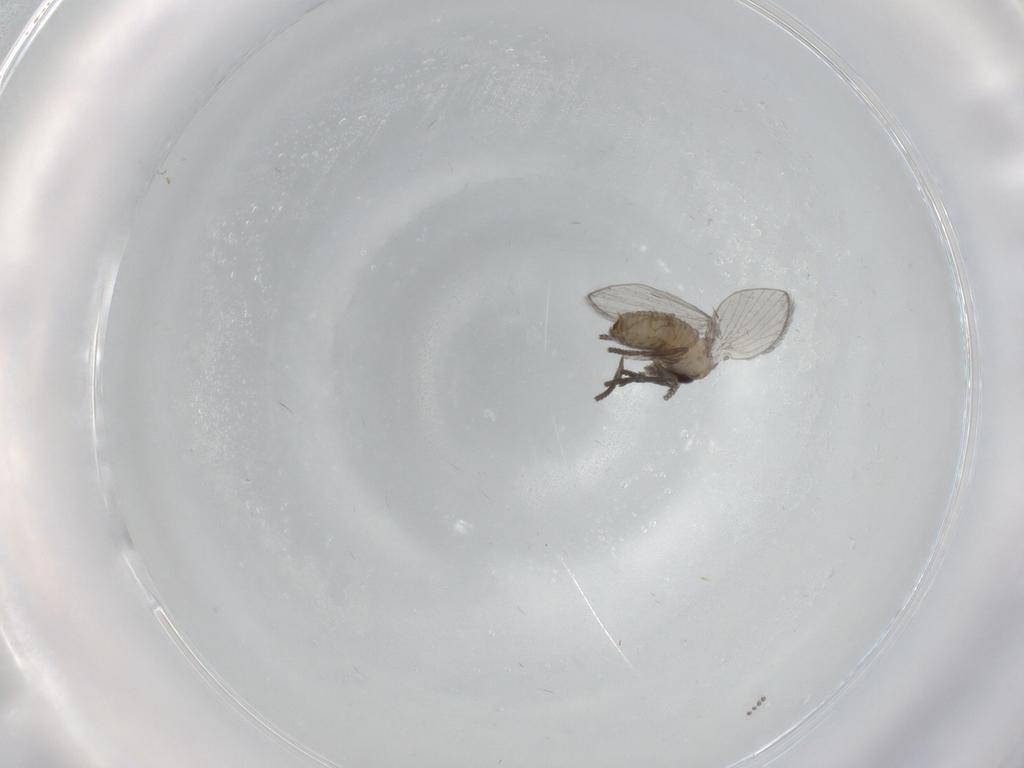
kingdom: Animalia
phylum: Arthropoda
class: Insecta
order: Diptera
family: Psychodidae
